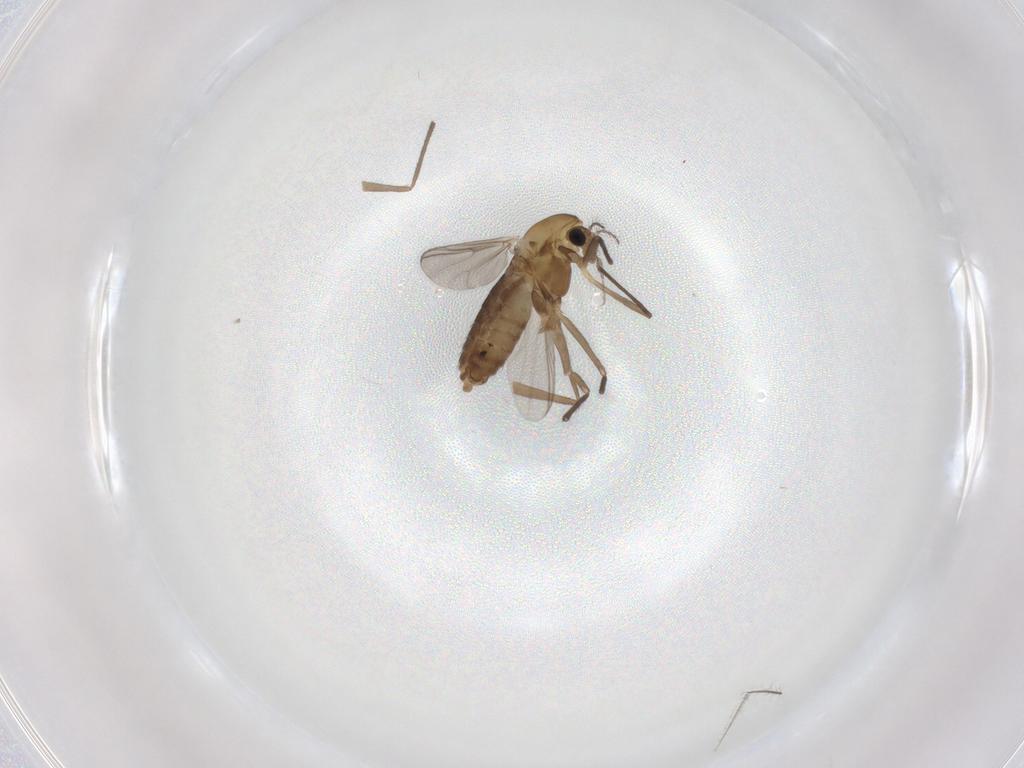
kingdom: Animalia
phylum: Arthropoda
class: Insecta
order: Diptera
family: Chironomidae
